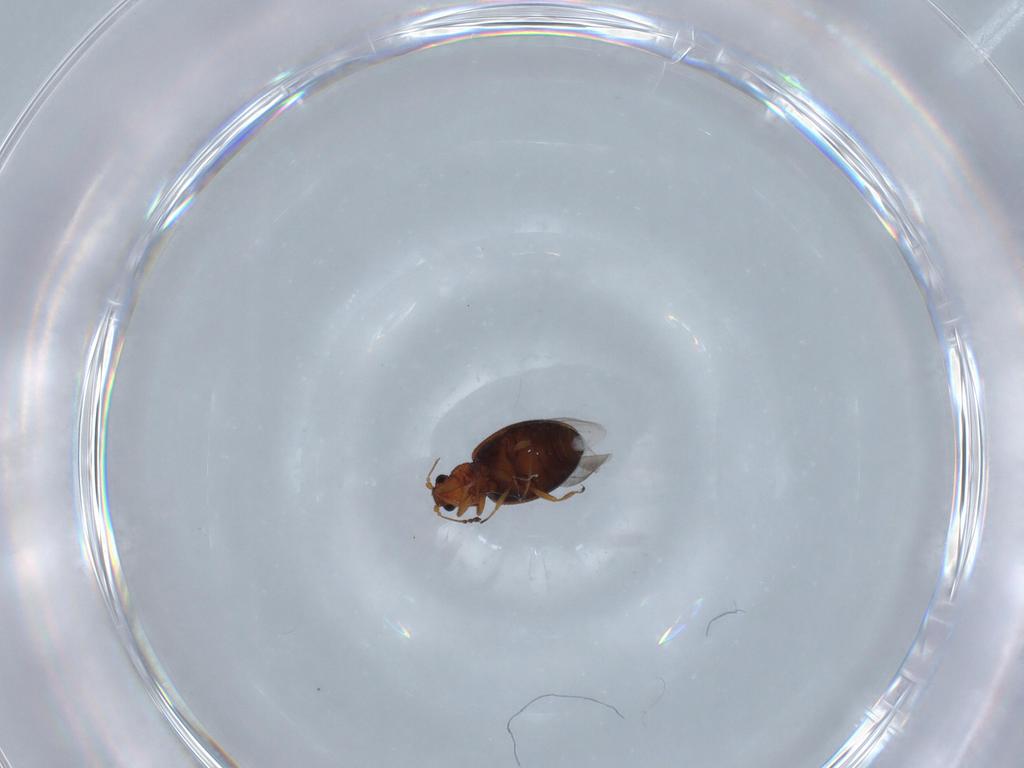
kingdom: Animalia
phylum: Arthropoda
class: Insecta
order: Coleoptera
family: Latridiidae
